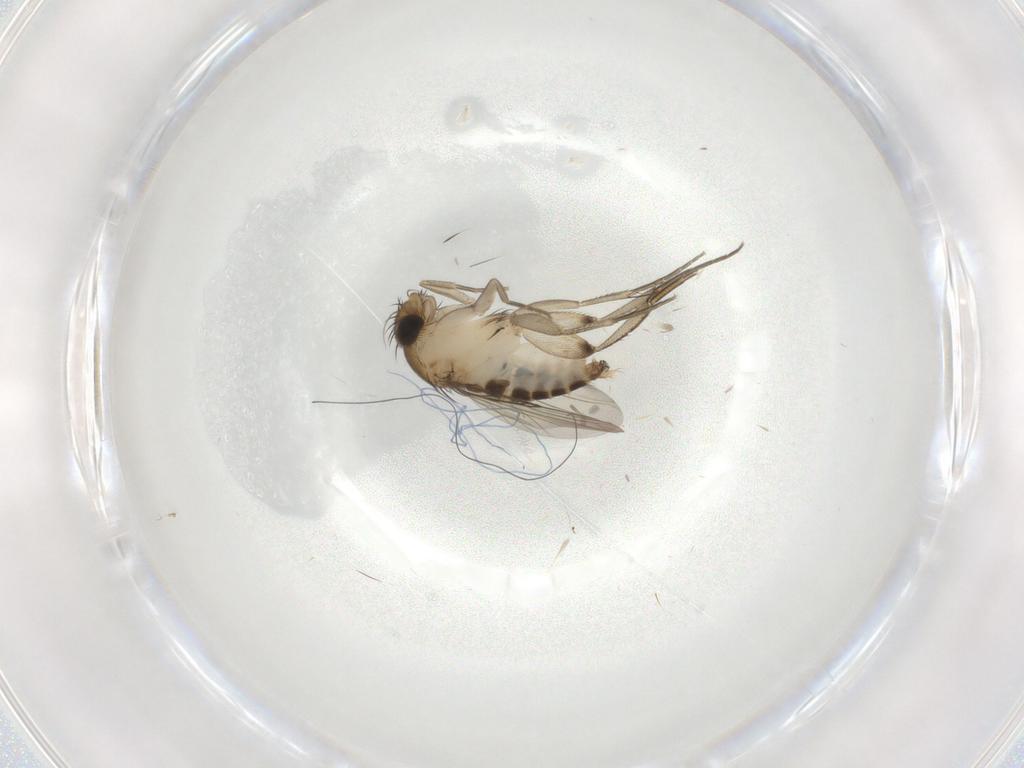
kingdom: Animalia
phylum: Arthropoda
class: Insecta
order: Diptera
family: Phoridae
